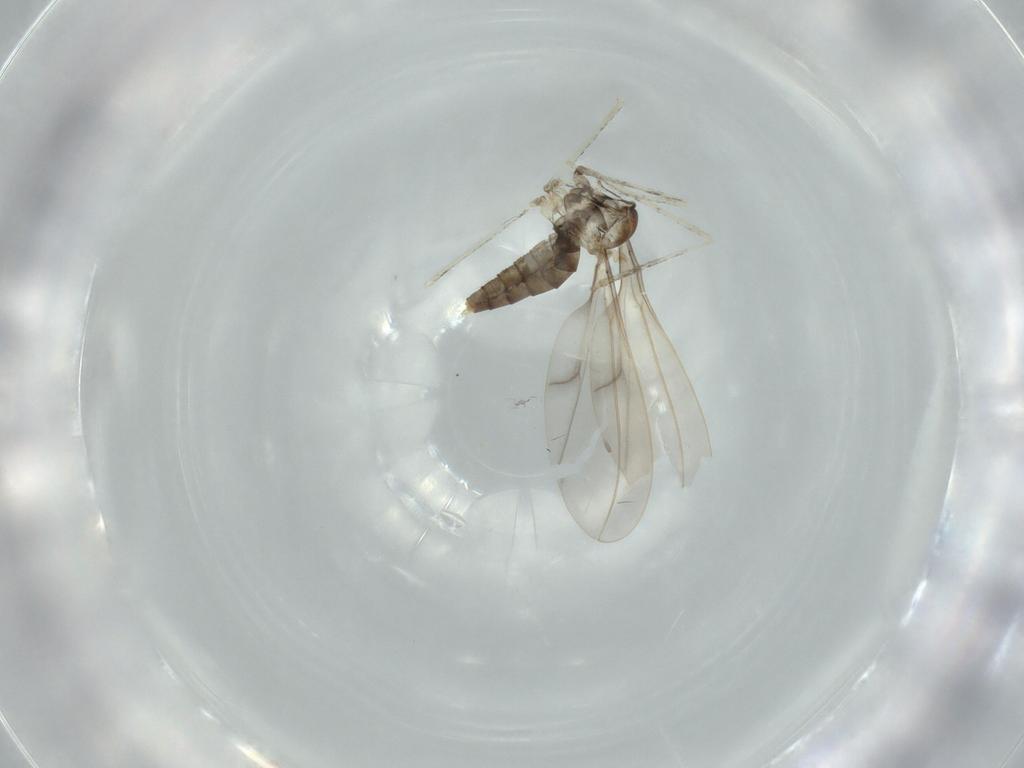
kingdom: Animalia
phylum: Arthropoda
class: Insecta
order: Diptera
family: Cecidomyiidae
